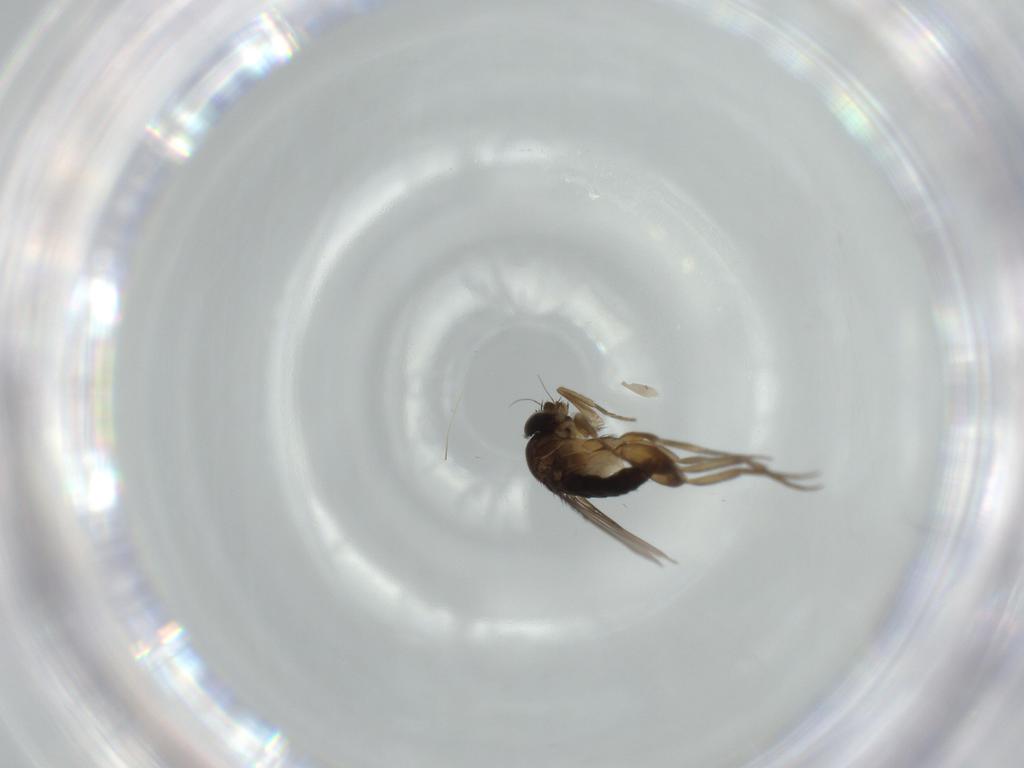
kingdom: Animalia
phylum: Arthropoda
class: Insecta
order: Diptera
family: Phoridae
